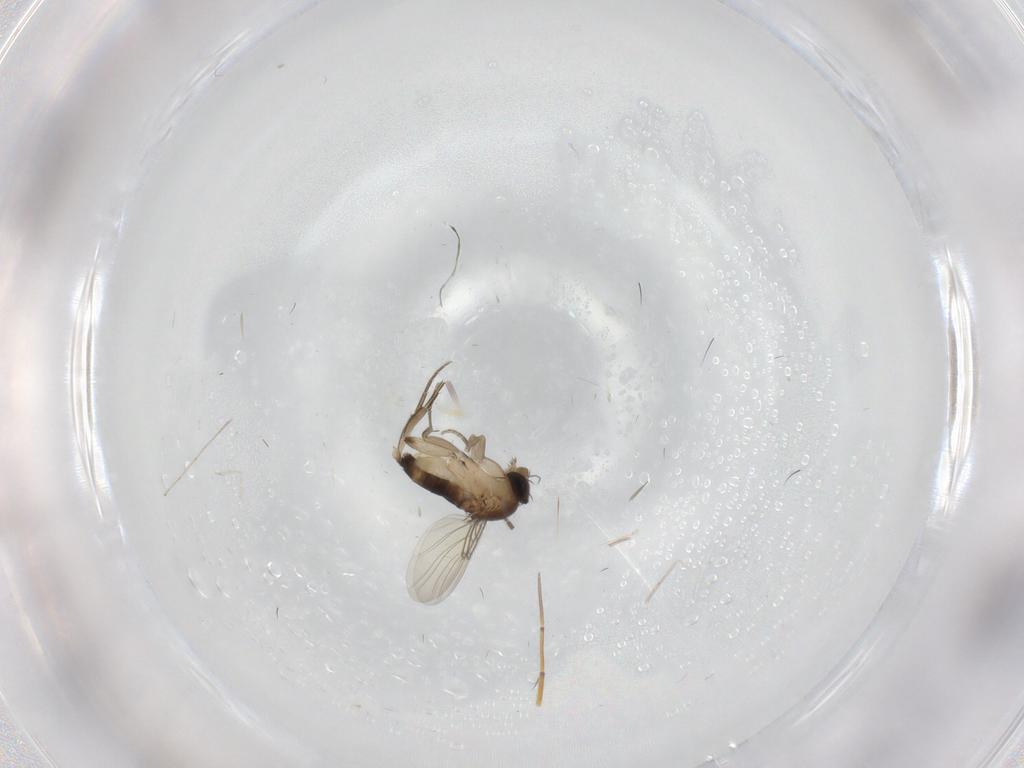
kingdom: Animalia
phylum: Arthropoda
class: Insecta
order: Diptera
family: Phoridae
